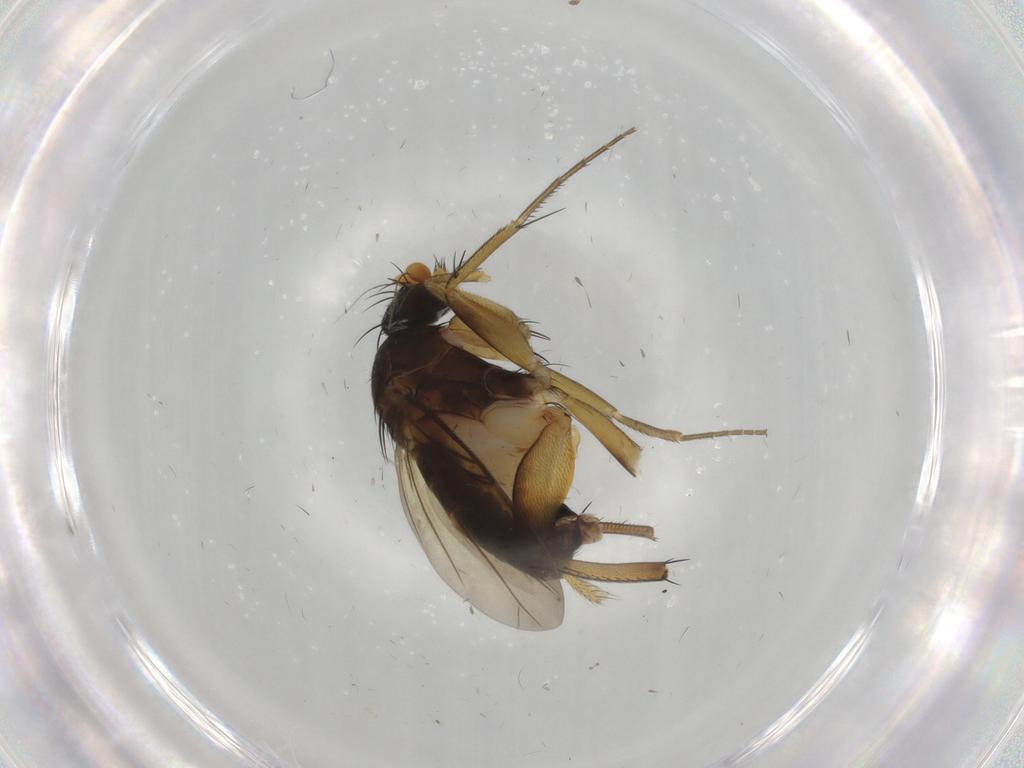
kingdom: Animalia
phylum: Arthropoda
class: Insecta
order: Diptera
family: Phoridae
